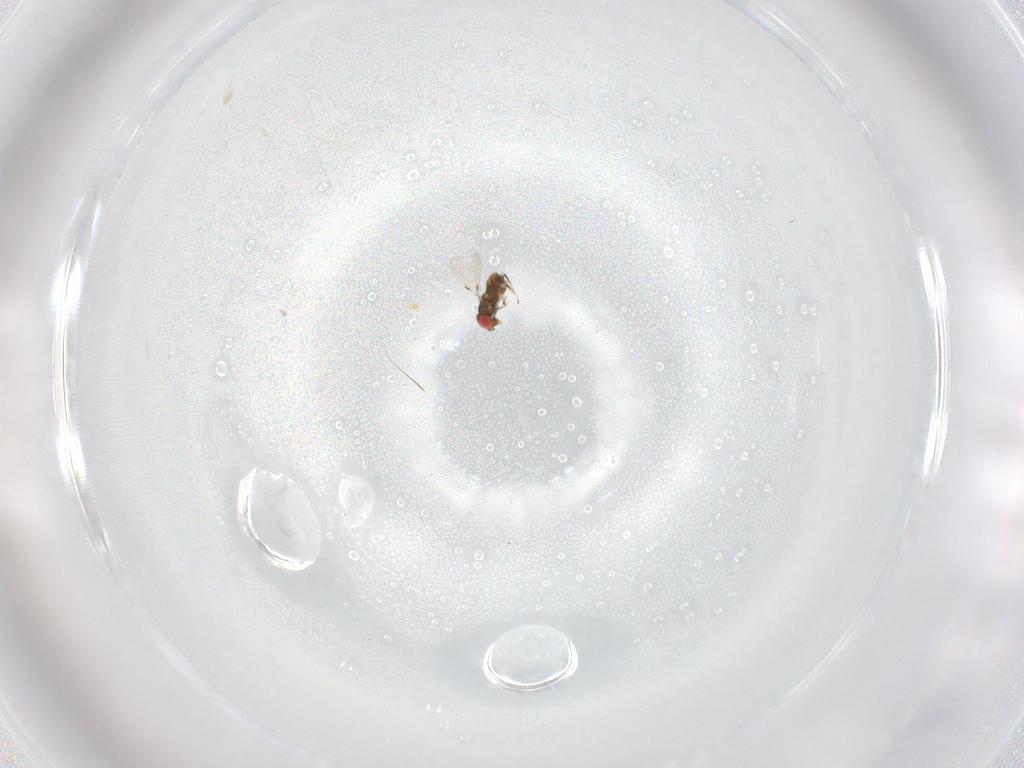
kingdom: Animalia
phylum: Arthropoda
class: Insecta
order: Hymenoptera
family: Trichogrammatidae
